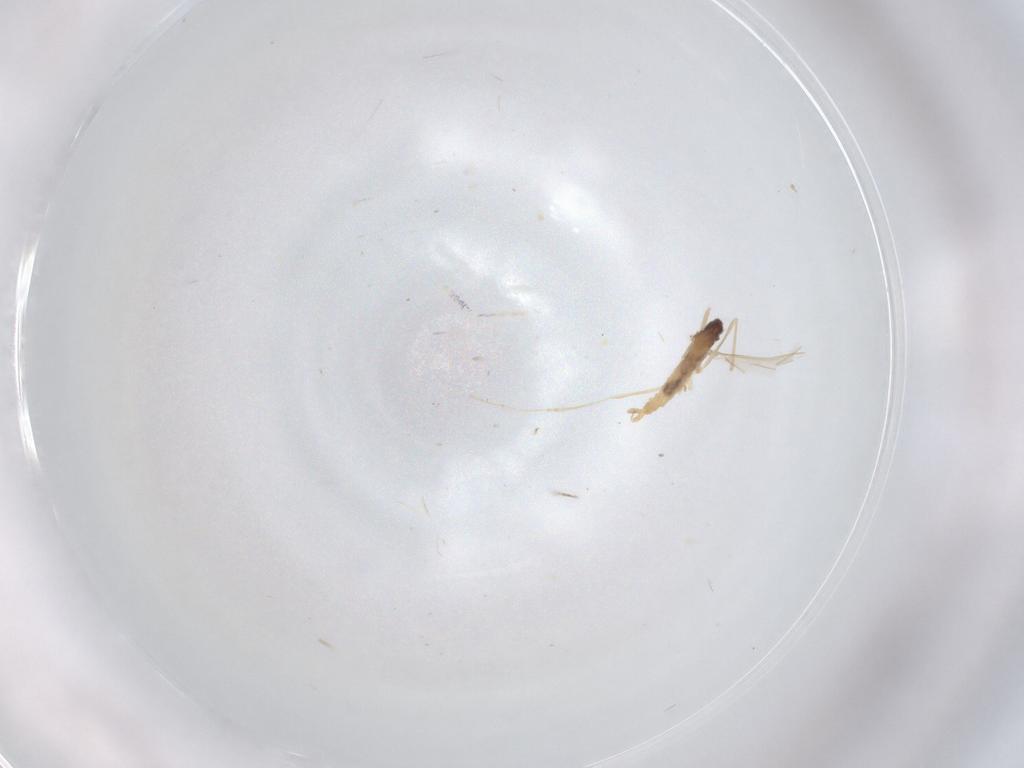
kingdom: Animalia
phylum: Arthropoda
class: Insecta
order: Diptera
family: Cecidomyiidae
